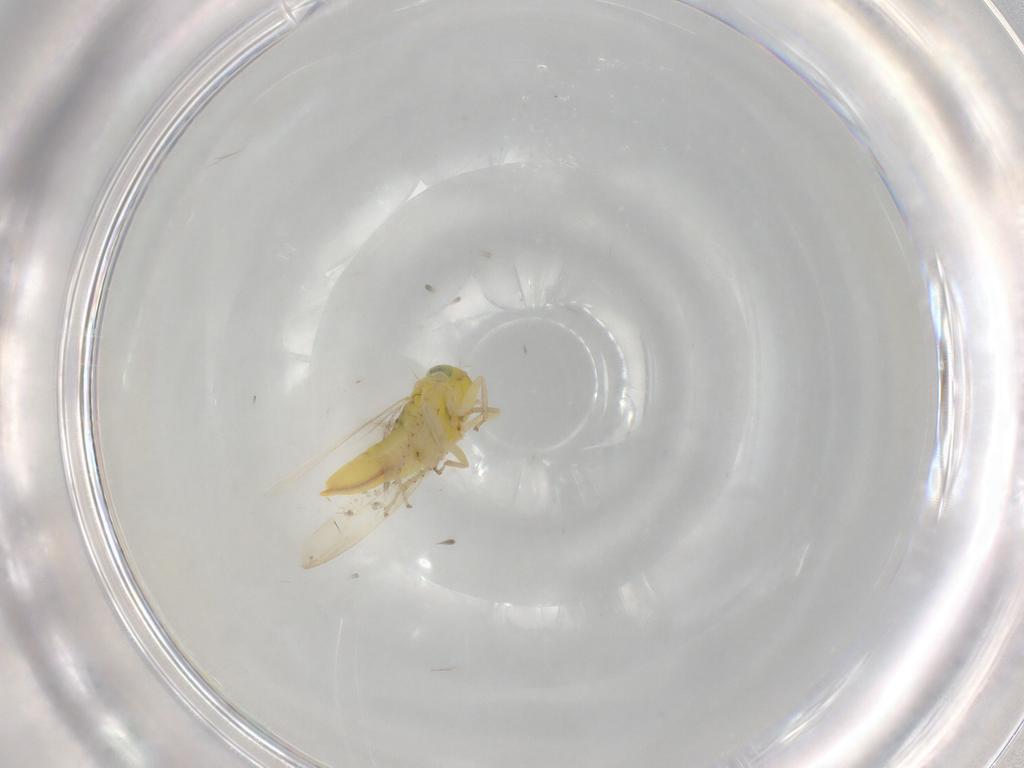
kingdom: Animalia
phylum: Arthropoda
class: Insecta
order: Hemiptera
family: Cicadellidae
